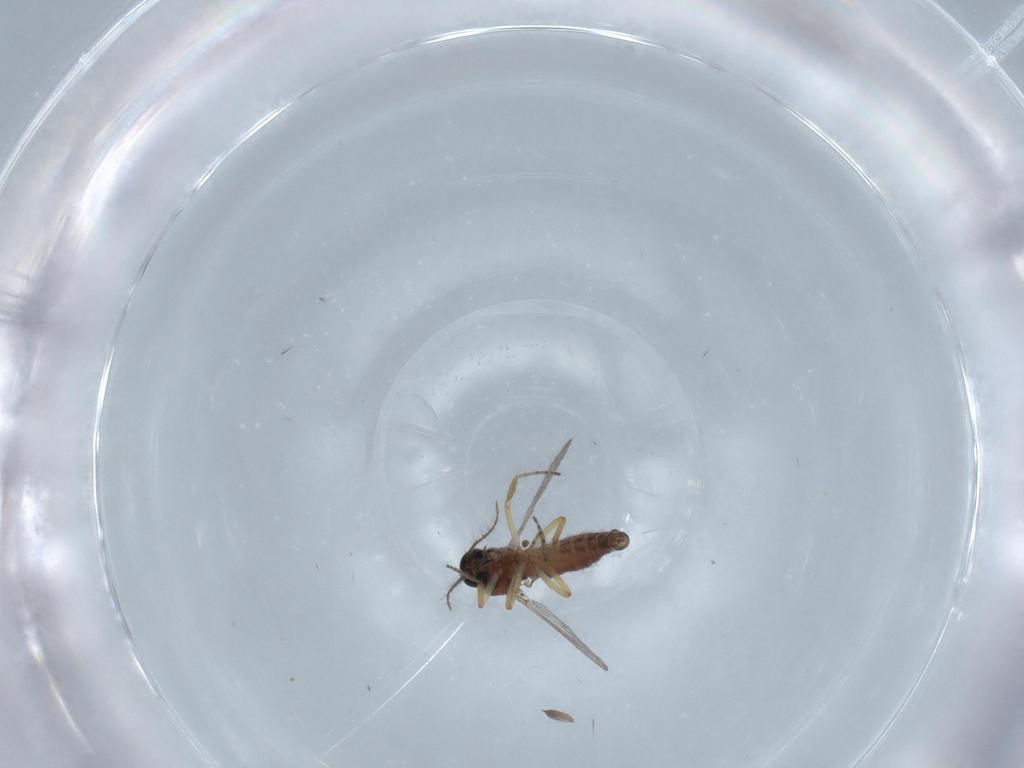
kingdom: Animalia
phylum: Arthropoda
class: Insecta
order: Diptera
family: Ceratopogonidae
